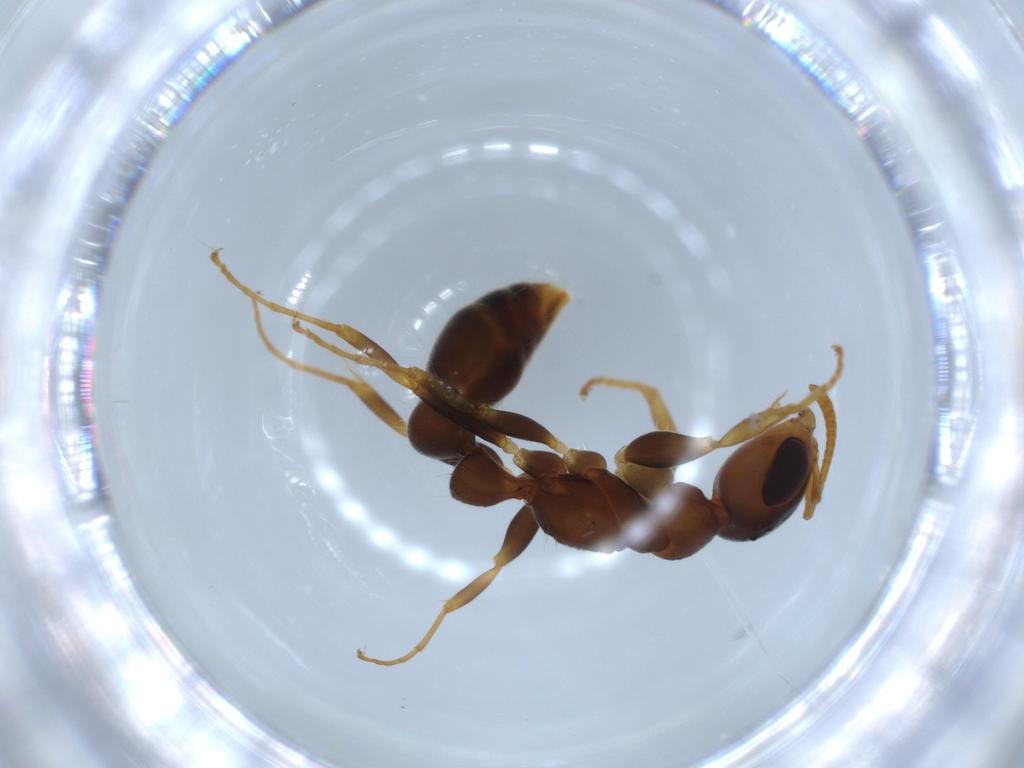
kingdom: Animalia
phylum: Arthropoda
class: Insecta
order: Hymenoptera
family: Formicidae
